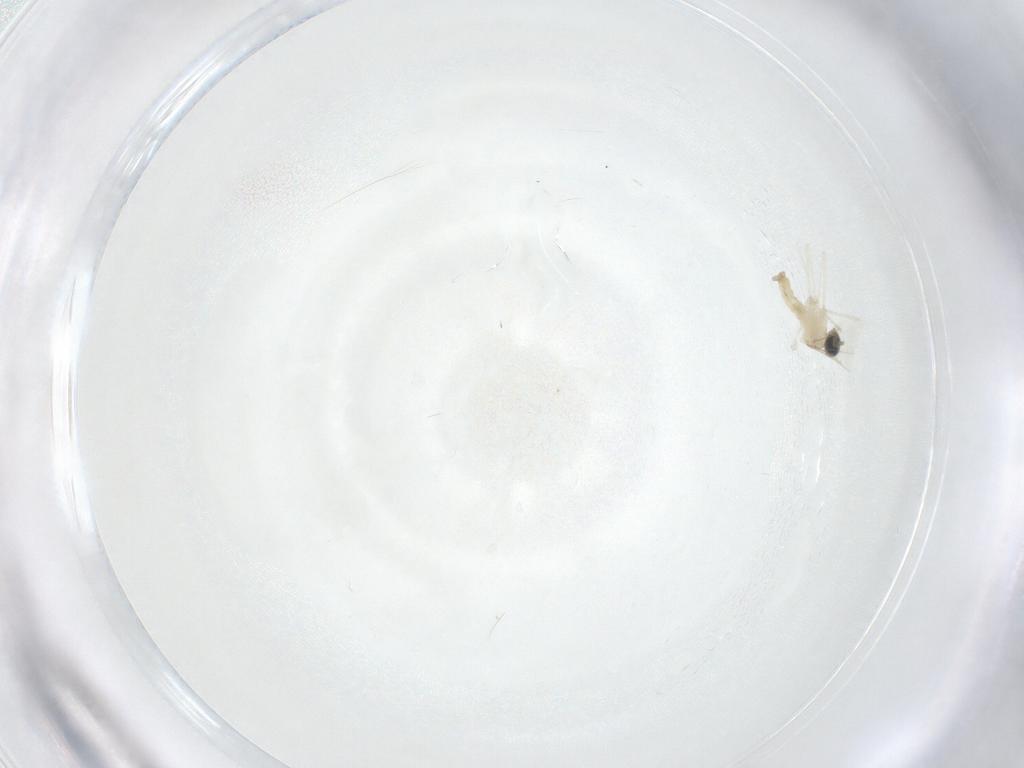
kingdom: Animalia
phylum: Arthropoda
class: Insecta
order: Diptera
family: Cecidomyiidae
